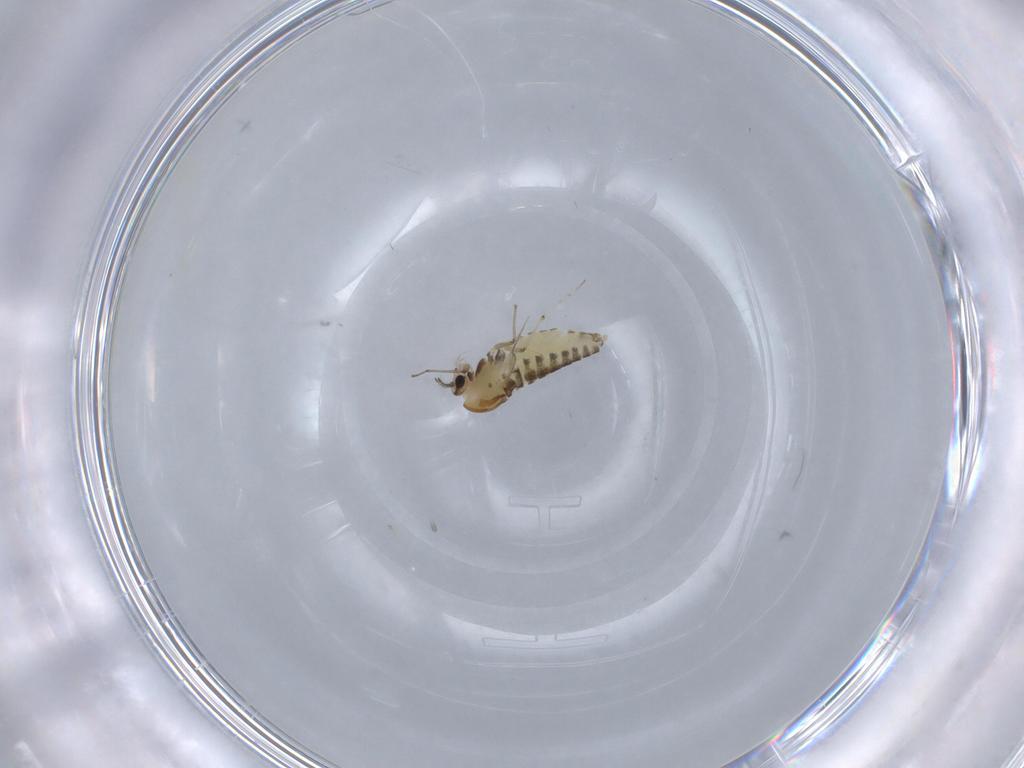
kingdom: Animalia
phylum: Arthropoda
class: Insecta
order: Diptera
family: Chironomidae
